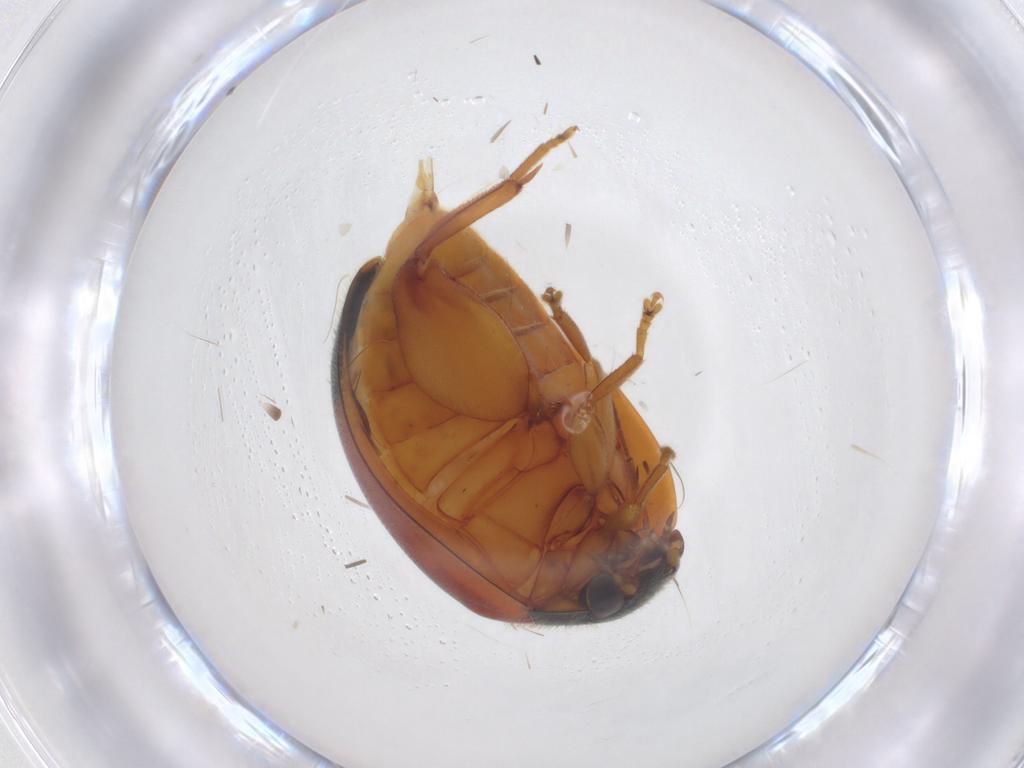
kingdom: Animalia
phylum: Arthropoda
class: Insecta
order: Coleoptera
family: Scirtidae
